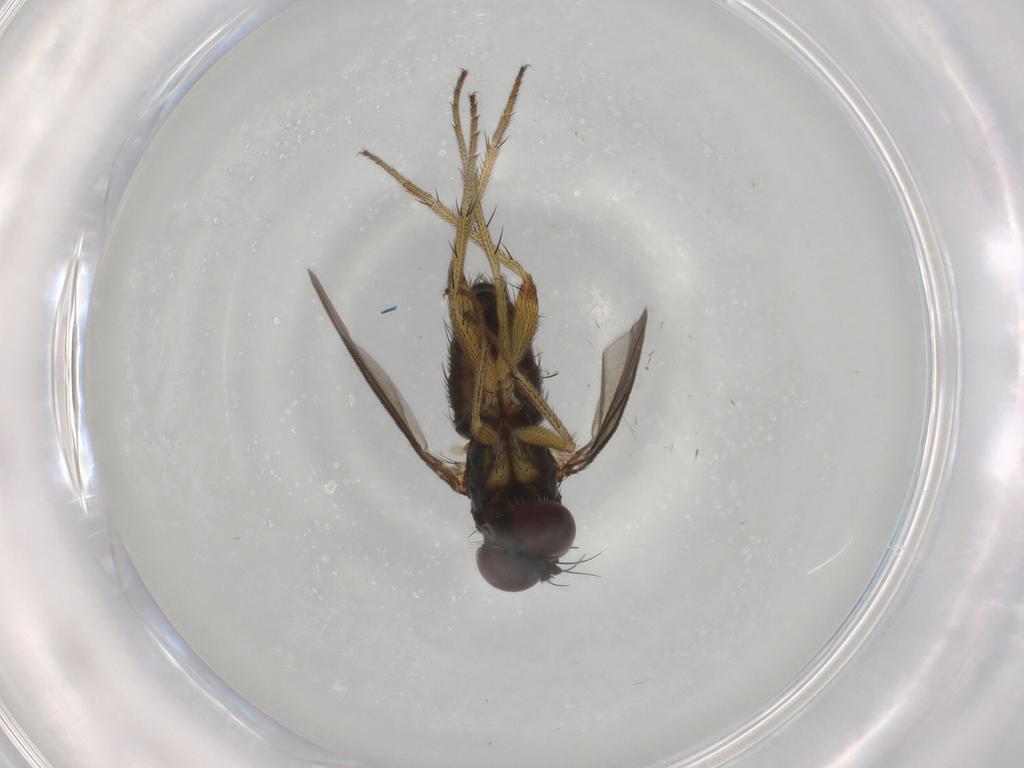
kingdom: Animalia
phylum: Arthropoda
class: Insecta
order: Diptera
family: Dolichopodidae
